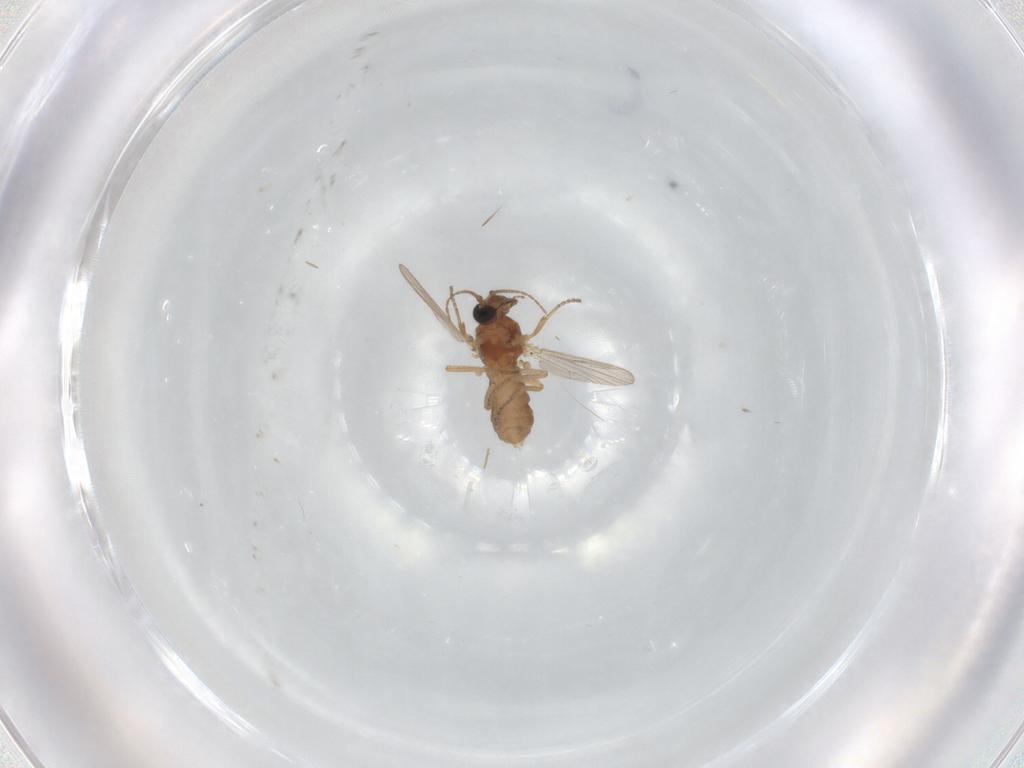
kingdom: Animalia
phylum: Arthropoda
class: Insecta
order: Diptera
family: Ceratopogonidae
